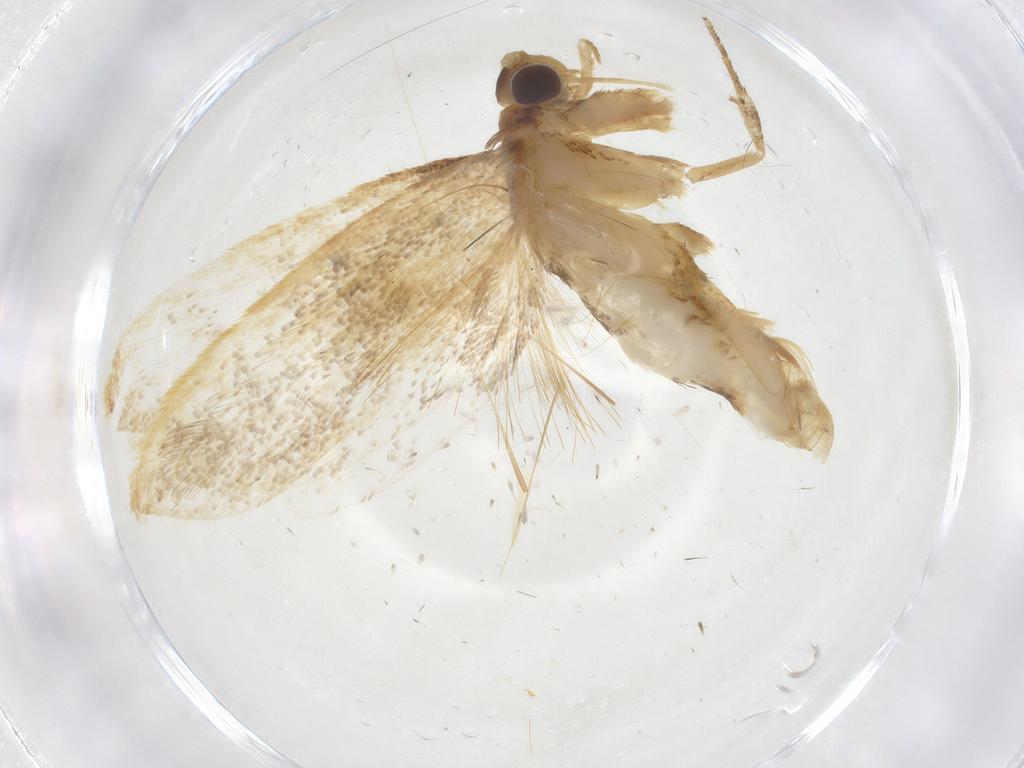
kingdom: Animalia
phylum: Arthropoda
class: Insecta
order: Lepidoptera
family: Lecithoceridae
